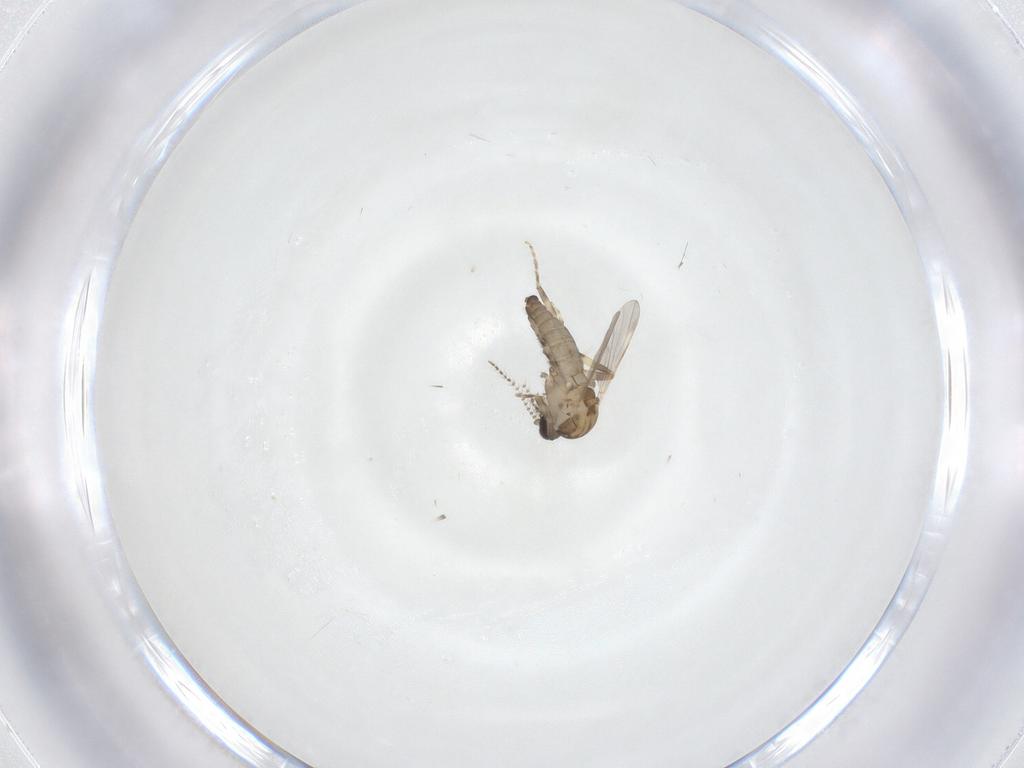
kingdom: Animalia
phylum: Arthropoda
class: Insecta
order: Diptera
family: Ceratopogonidae
